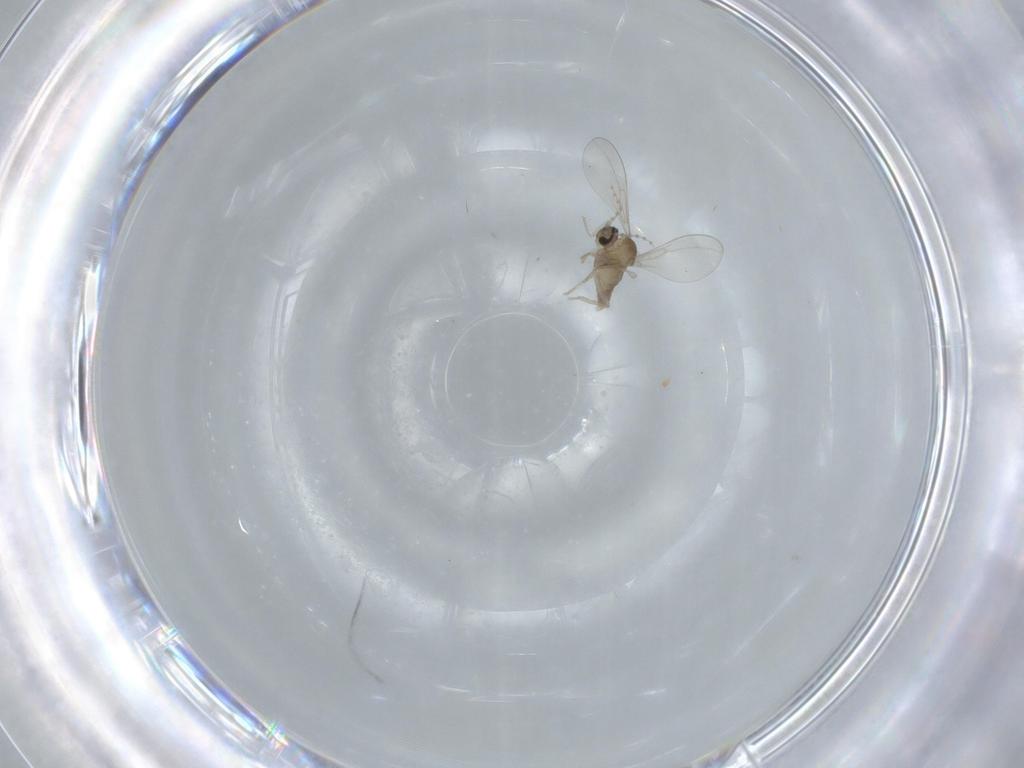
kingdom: Animalia
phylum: Arthropoda
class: Insecta
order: Diptera
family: Cecidomyiidae
